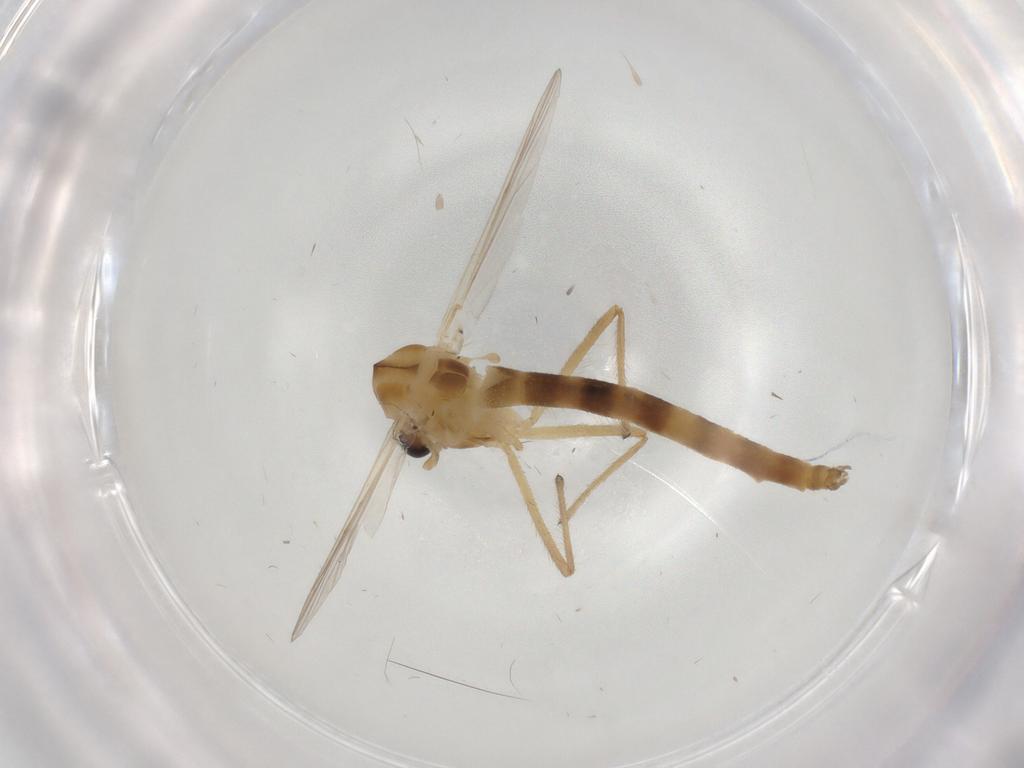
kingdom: Animalia
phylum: Arthropoda
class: Insecta
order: Diptera
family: Chironomidae
